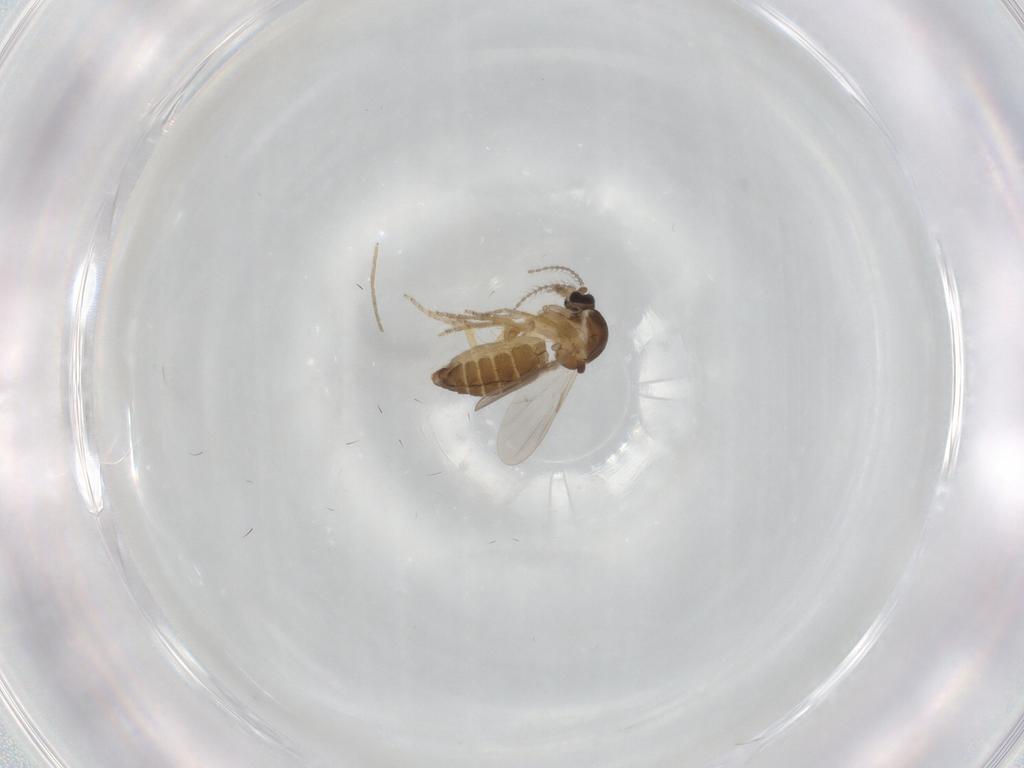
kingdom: Animalia
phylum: Arthropoda
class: Insecta
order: Diptera
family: Ceratopogonidae
